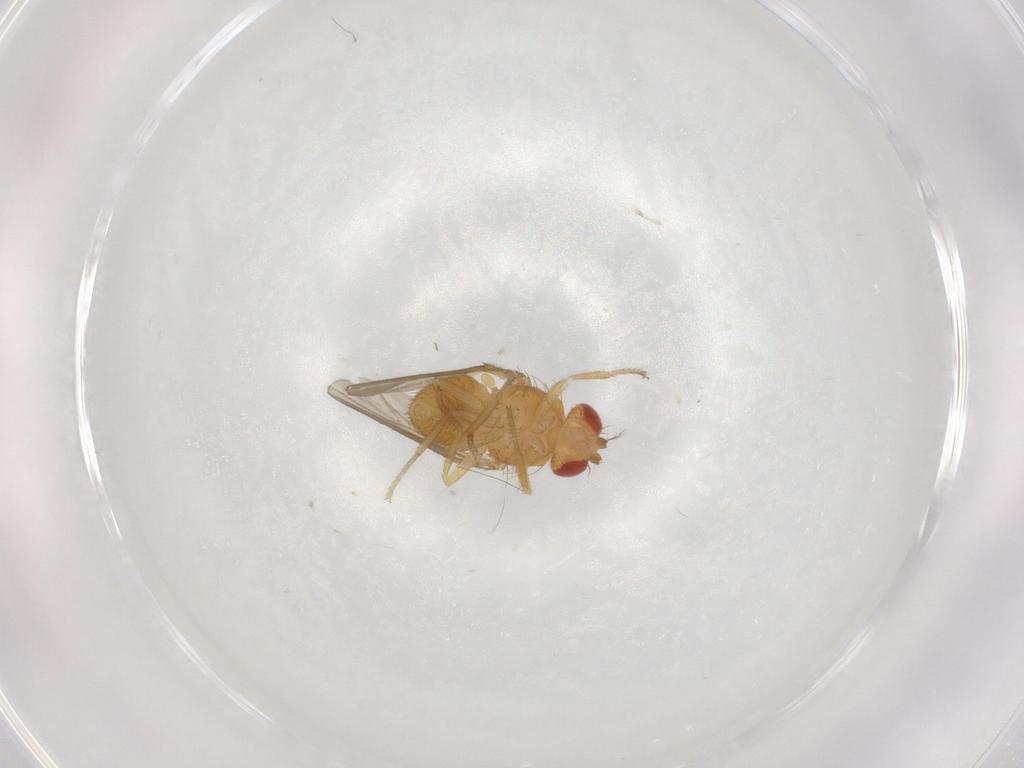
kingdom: Animalia
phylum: Arthropoda
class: Insecta
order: Diptera
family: Drosophilidae
